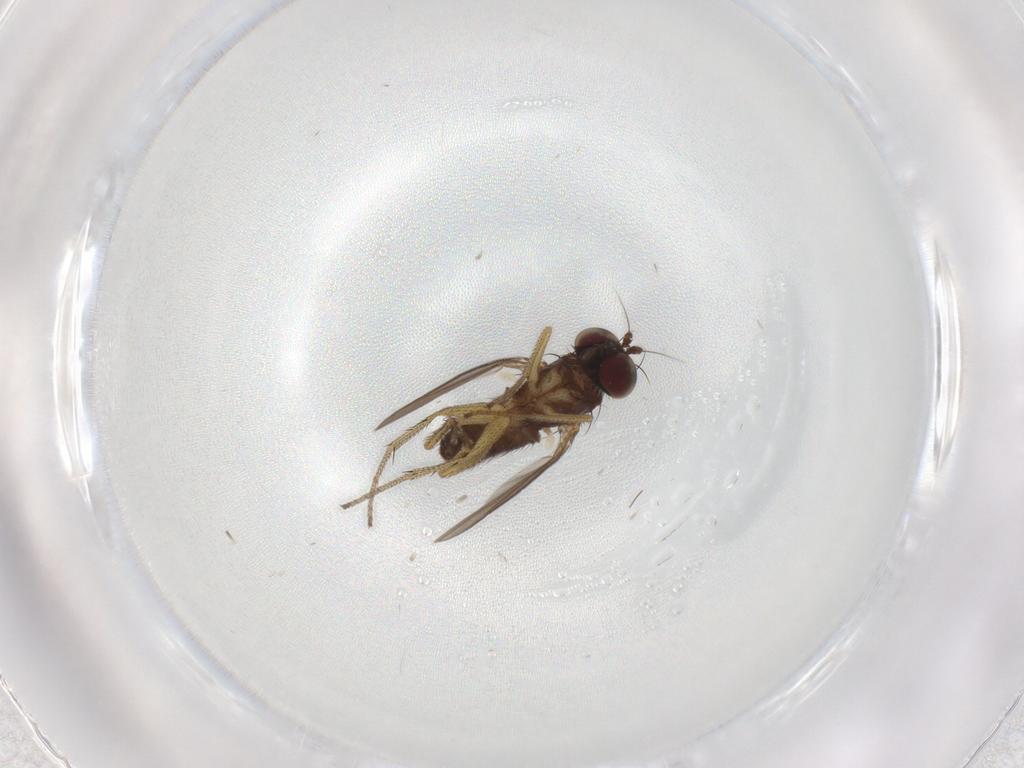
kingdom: Animalia
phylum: Arthropoda
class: Insecta
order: Diptera
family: Dolichopodidae
